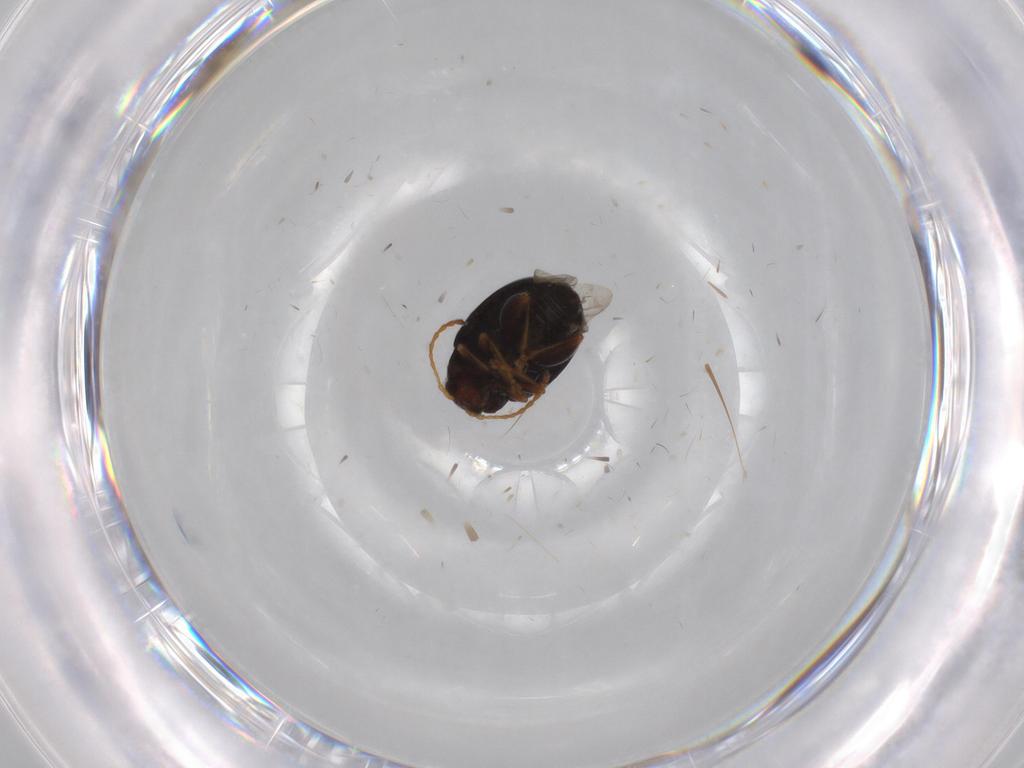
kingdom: Animalia
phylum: Arthropoda
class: Insecta
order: Coleoptera
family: Chrysomelidae
